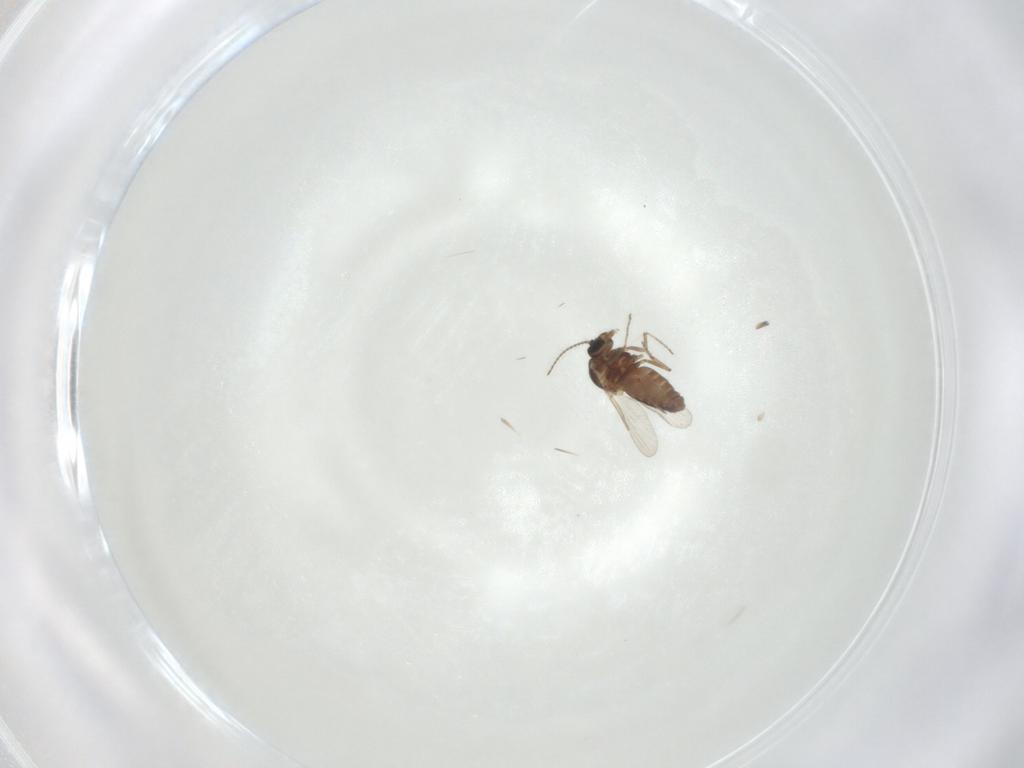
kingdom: Animalia
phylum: Arthropoda
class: Insecta
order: Diptera
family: Ceratopogonidae
